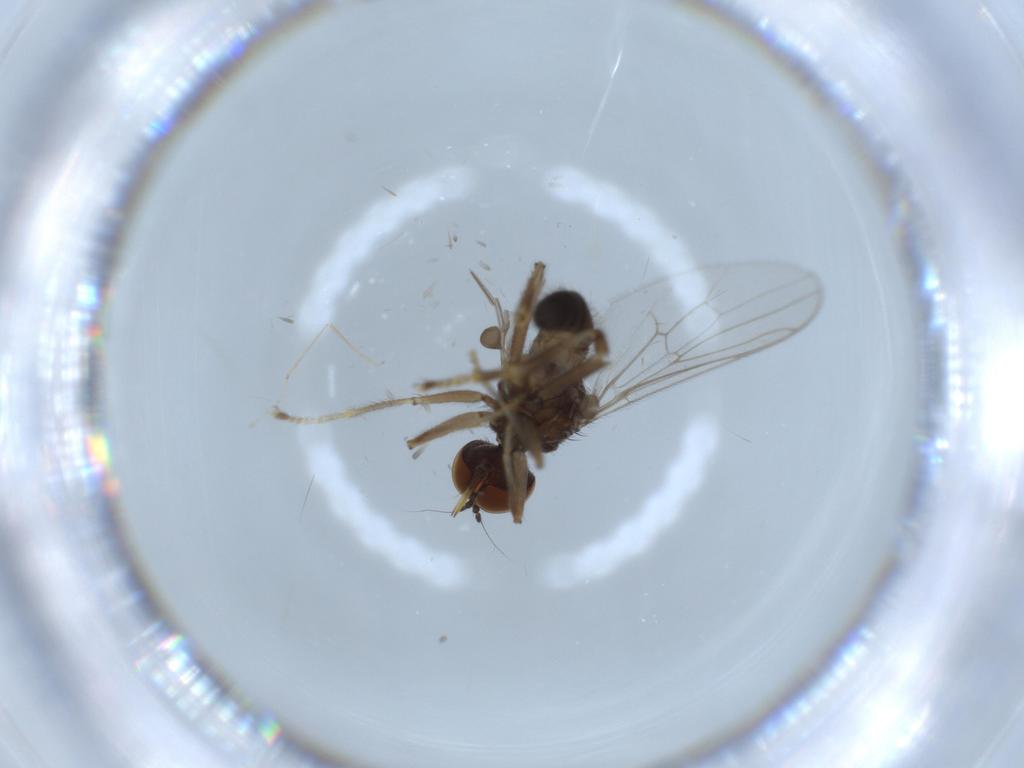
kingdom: Animalia
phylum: Arthropoda
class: Insecta
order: Diptera
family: Hybotidae
